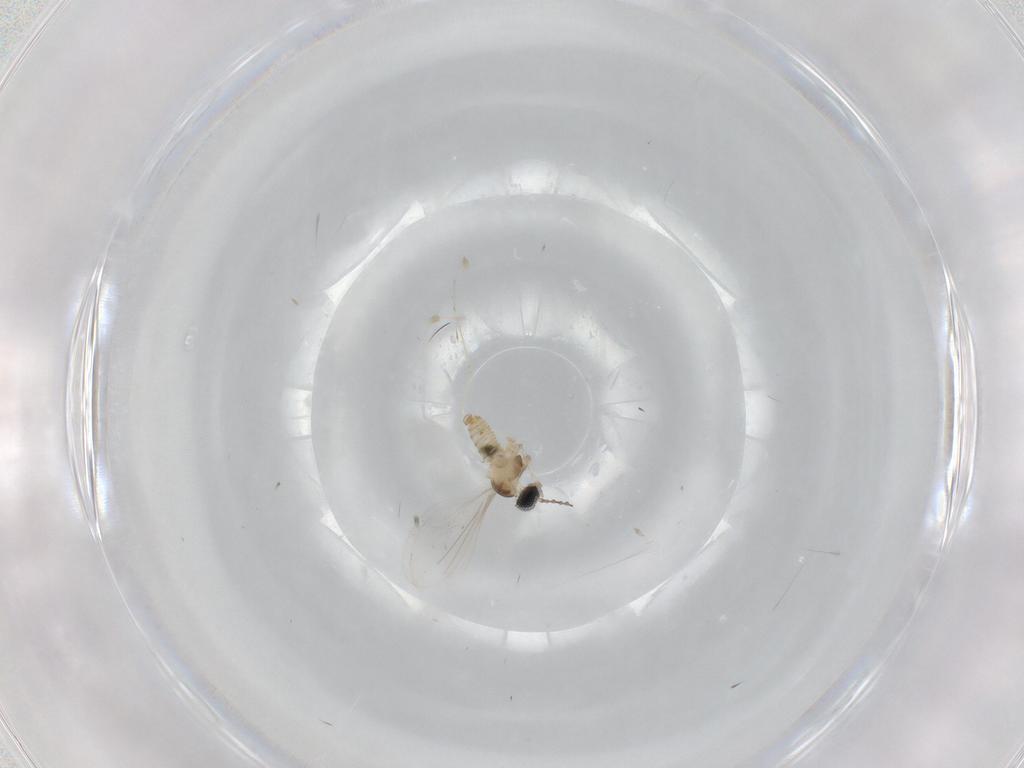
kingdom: Animalia
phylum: Arthropoda
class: Insecta
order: Diptera
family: Cecidomyiidae
